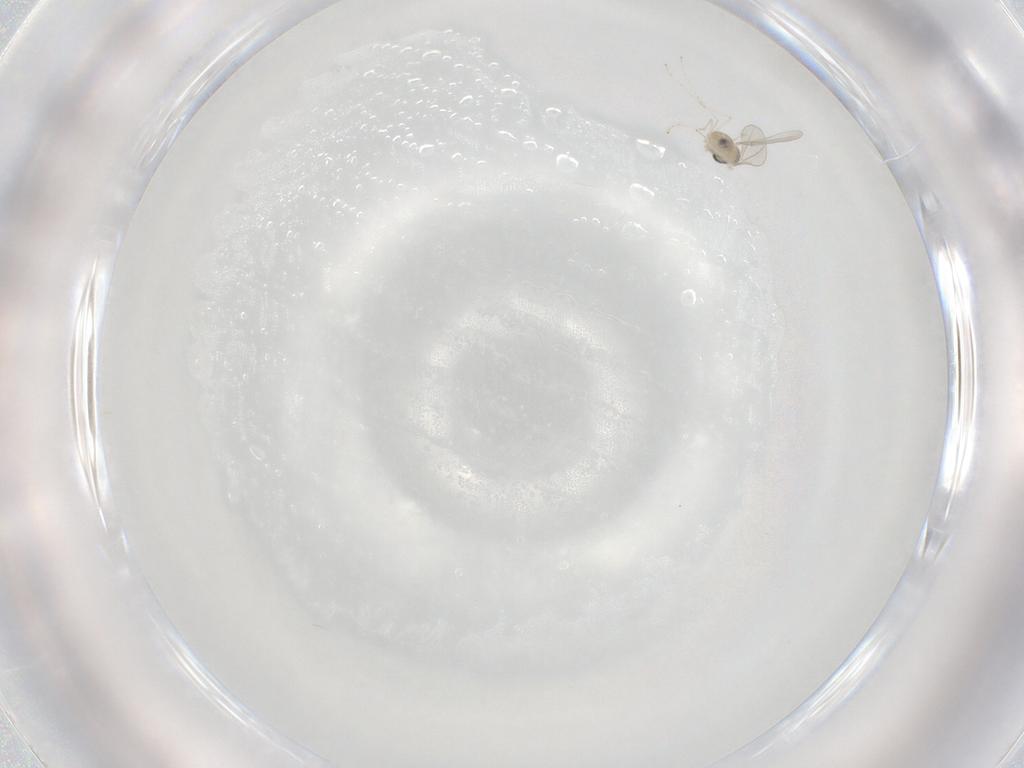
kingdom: Animalia
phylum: Arthropoda
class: Insecta
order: Diptera
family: Cecidomyiidae
